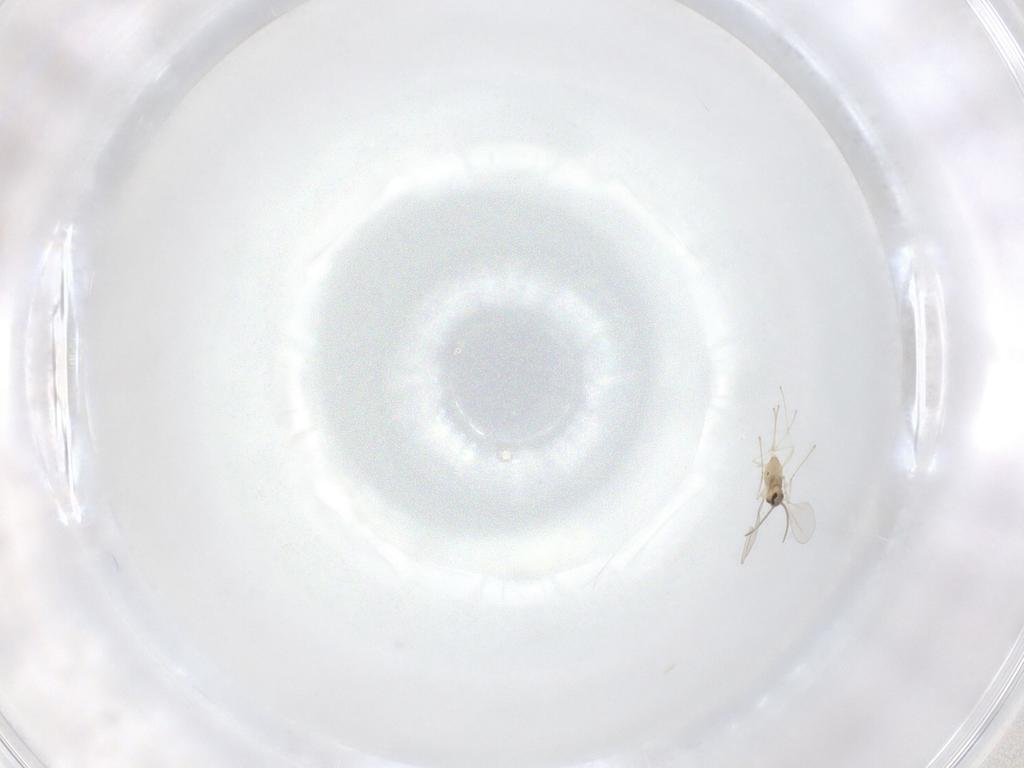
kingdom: Animalia
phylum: Arthropoda
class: Insecta
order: Diptera
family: Cecidomyiidae
